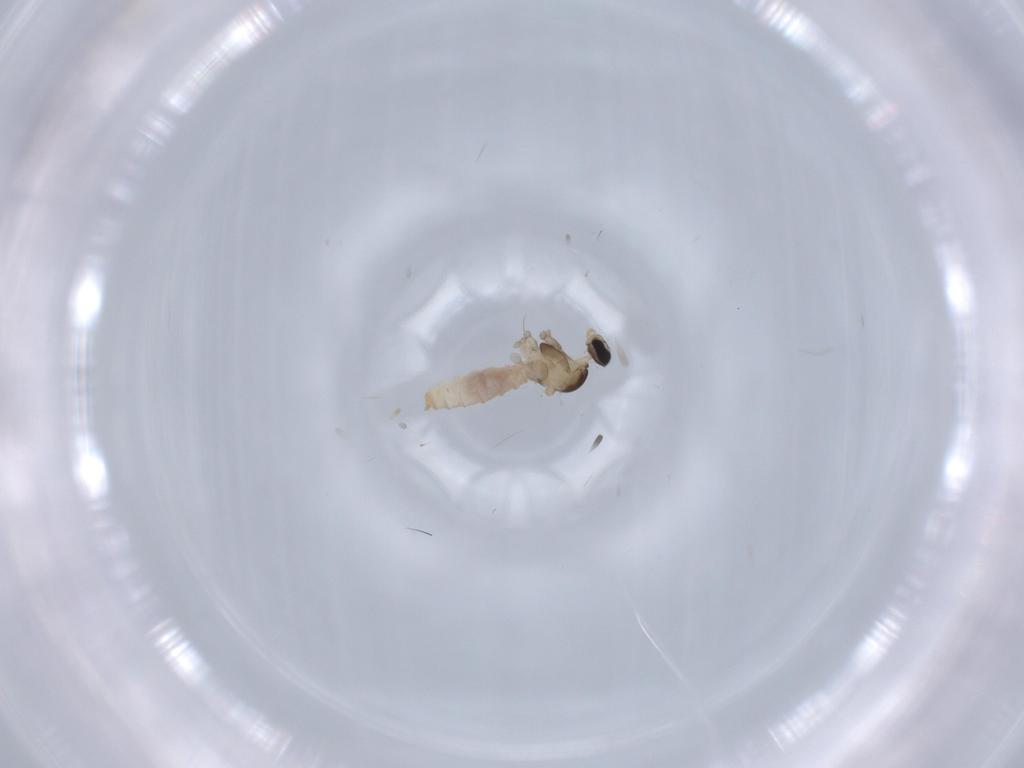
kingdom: Animalia
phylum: Arthropoda
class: Insecta
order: Diptera
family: Cecidomyiidae
